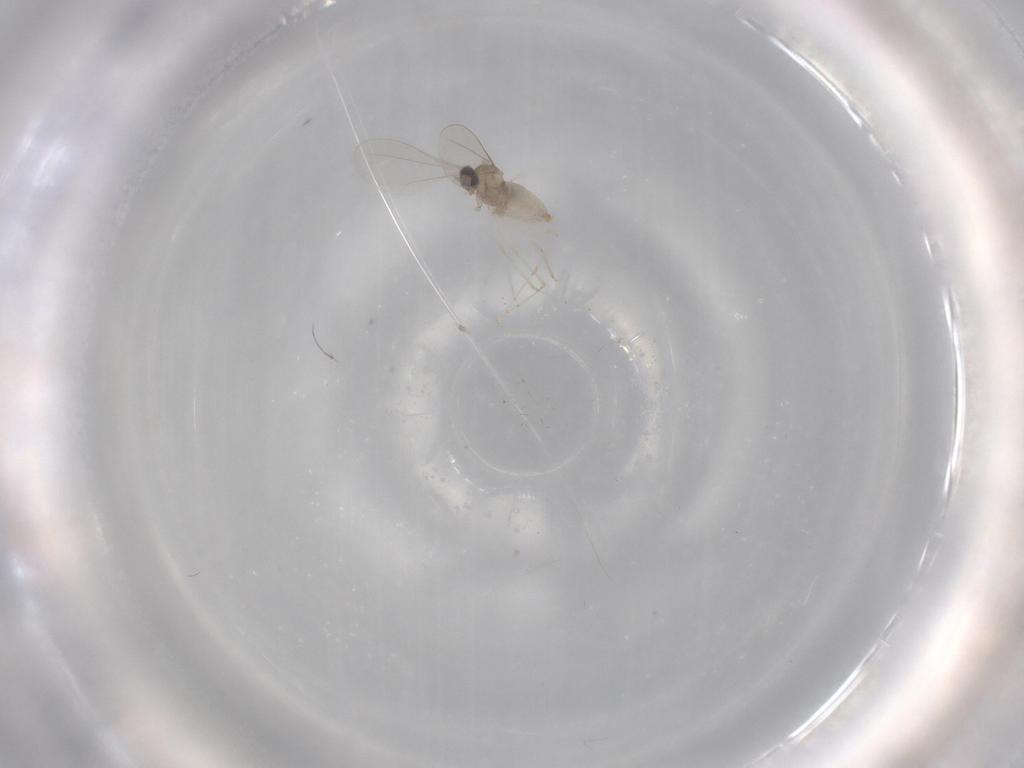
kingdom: Animalia
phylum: Arthropoda
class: Insecta
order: Diptera
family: Cecidomyiidae
